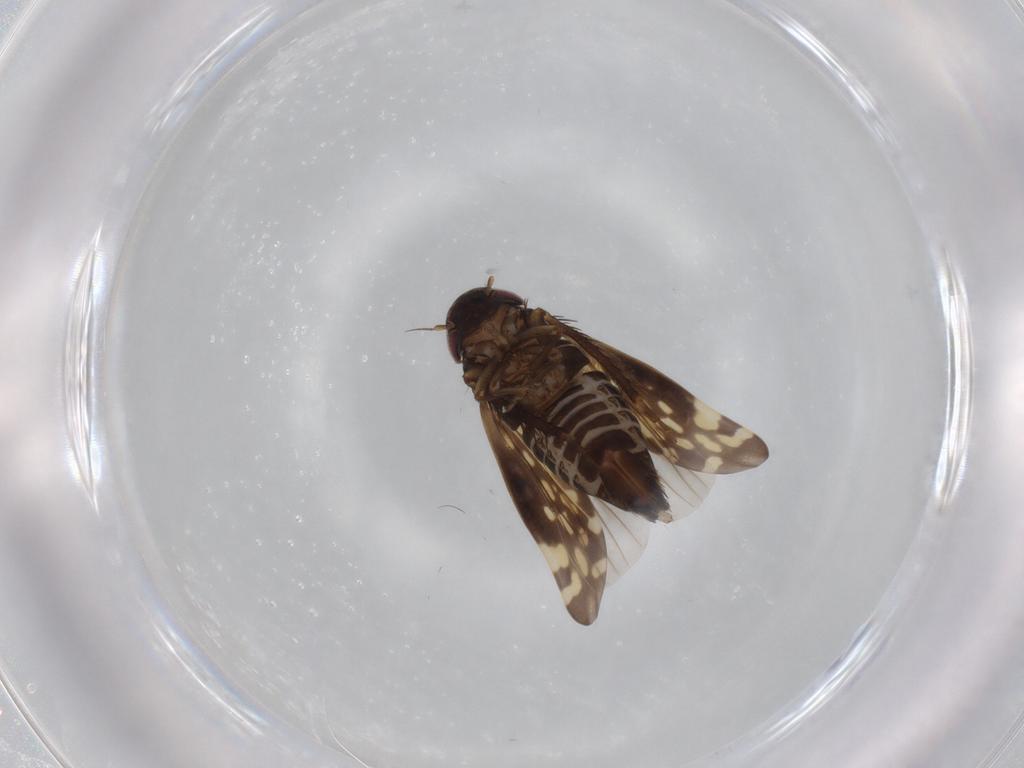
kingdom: Animalia
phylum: Arthropoda
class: Insecta
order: Hemiptera
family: Cicadellidae
